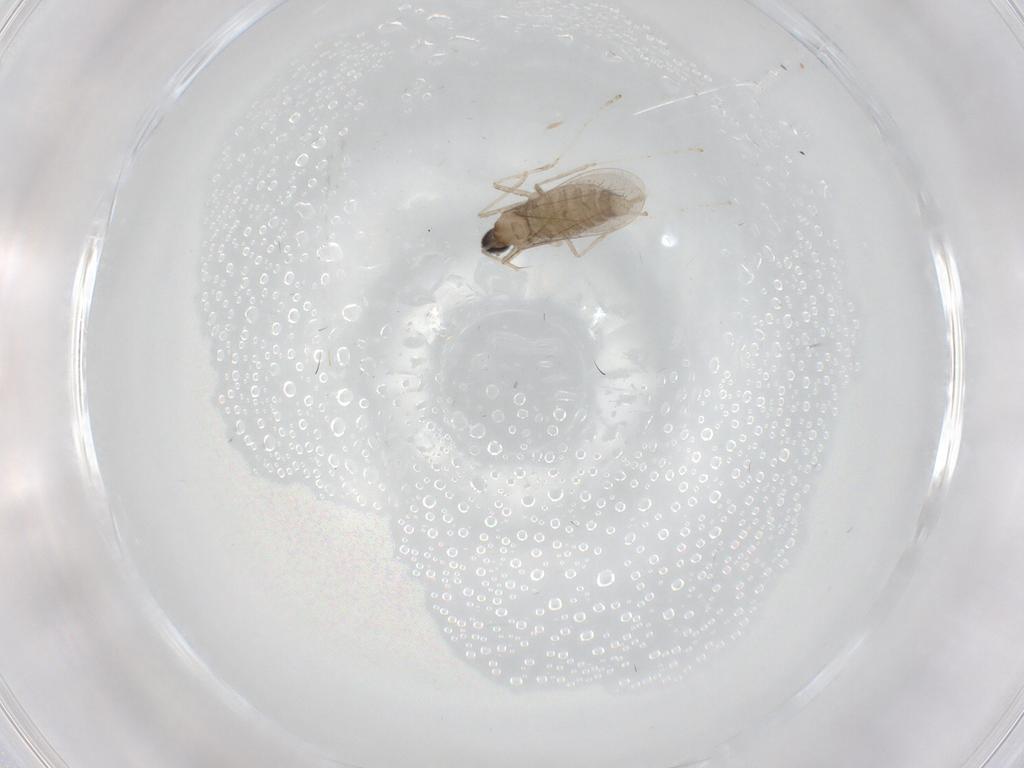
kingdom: Animalia
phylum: Arthropoda
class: Insecta
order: Diptera
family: Cecidomyiidae
